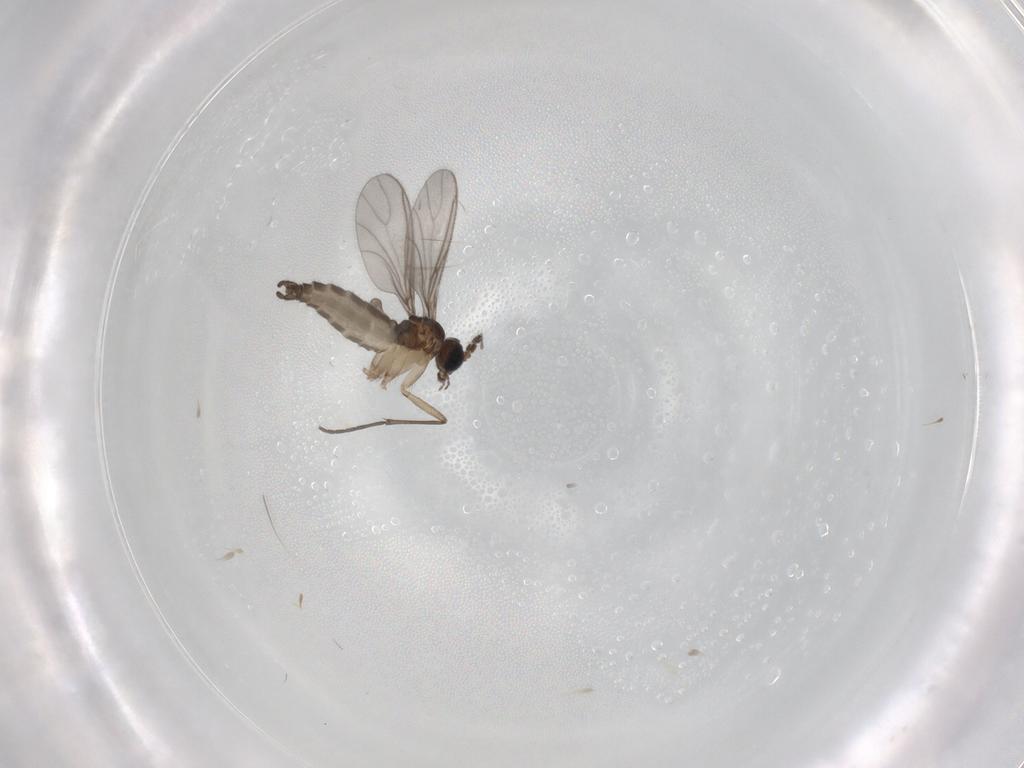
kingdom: Animalia
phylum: Arthropoda
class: Insecta
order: Diptera
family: Sciaridae
